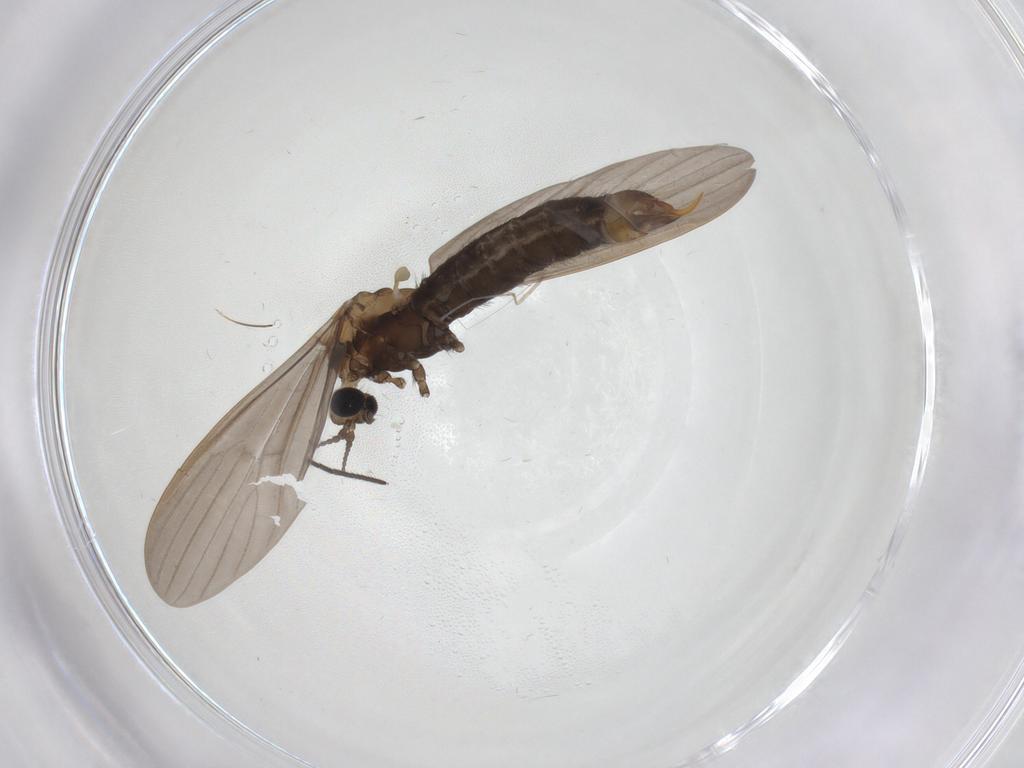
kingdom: Animalia
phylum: Arthropoda
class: Insecta
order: Diptera
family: Limoniidae
